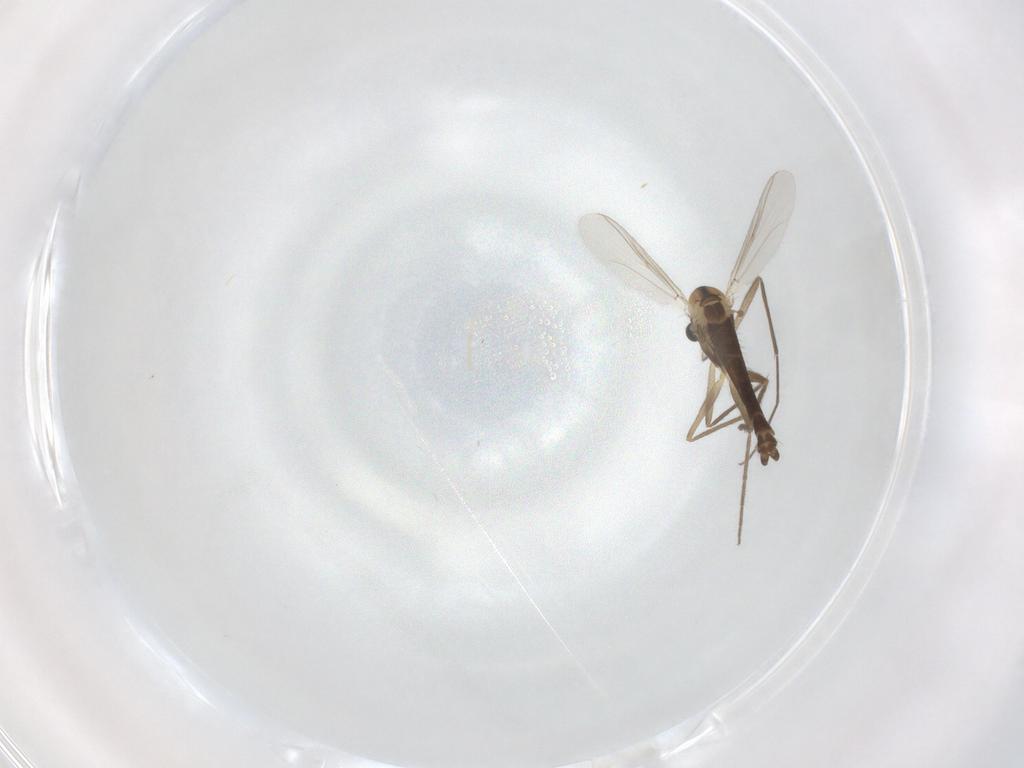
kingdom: Animalia
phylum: Arthropoda
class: Insecta
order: Diptera
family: Chironomidae
